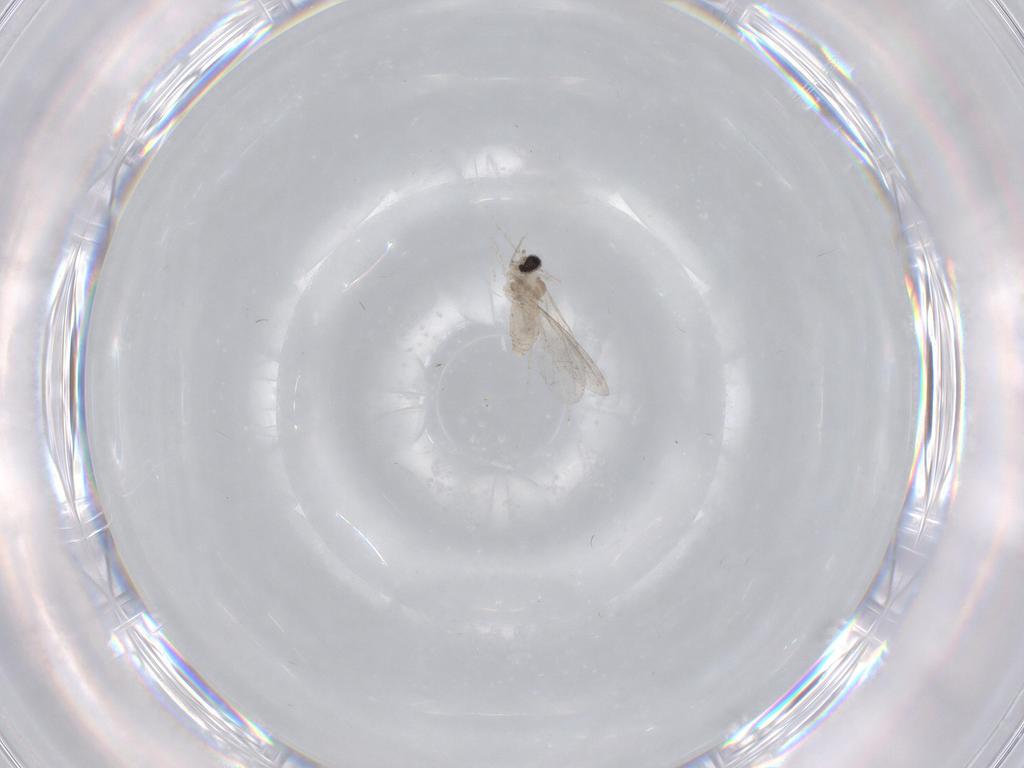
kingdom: Animalia
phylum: Arthropoda
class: Insecta
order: Diptera
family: Cecidomyiidae
